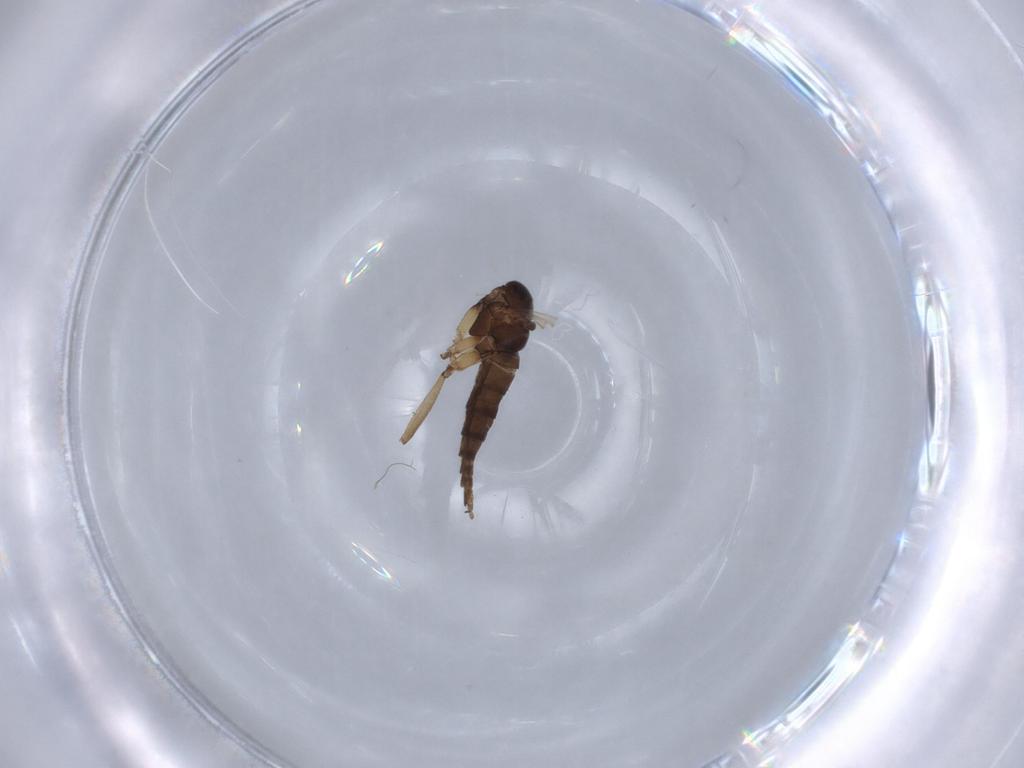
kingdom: Animalia
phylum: Arthropoda
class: Insecta
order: Diptera
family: Sciaridae
